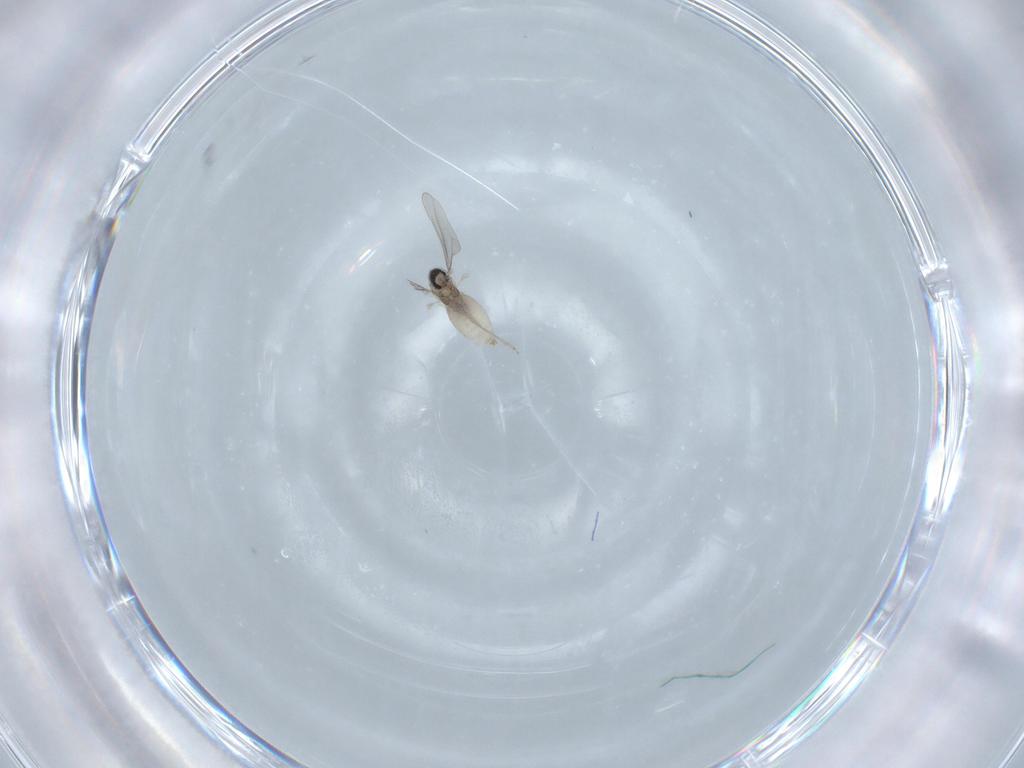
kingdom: Animalia
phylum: Arthropoda
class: Insecta
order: Diptera
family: Cecidomyiidae
